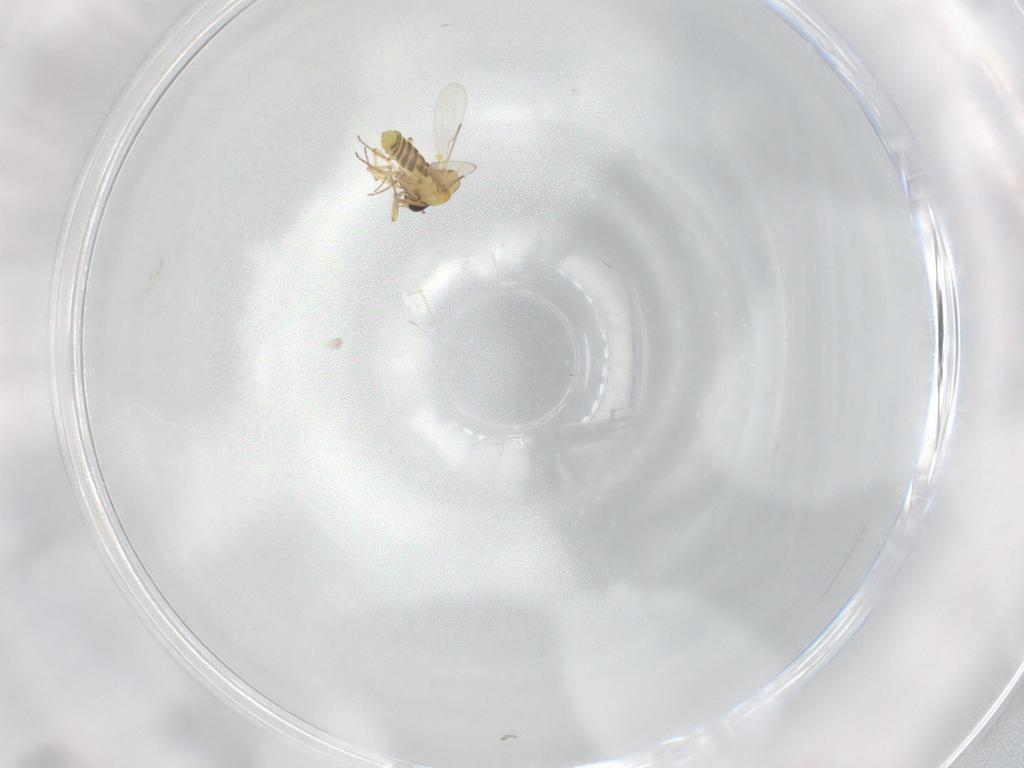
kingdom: Animalia
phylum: Arthropoda
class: Insecta
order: Diptera
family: Ceratopogonidae
